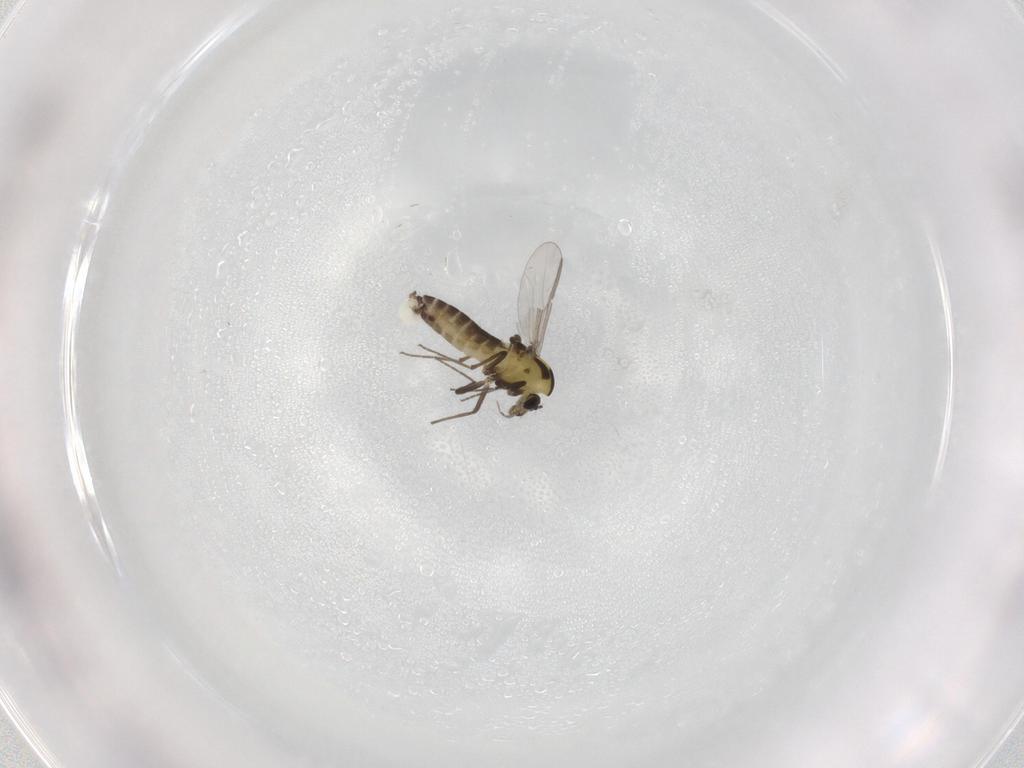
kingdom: Animalia
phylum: Arthropoda
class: Insecta
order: Diptera
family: Chironomidae
